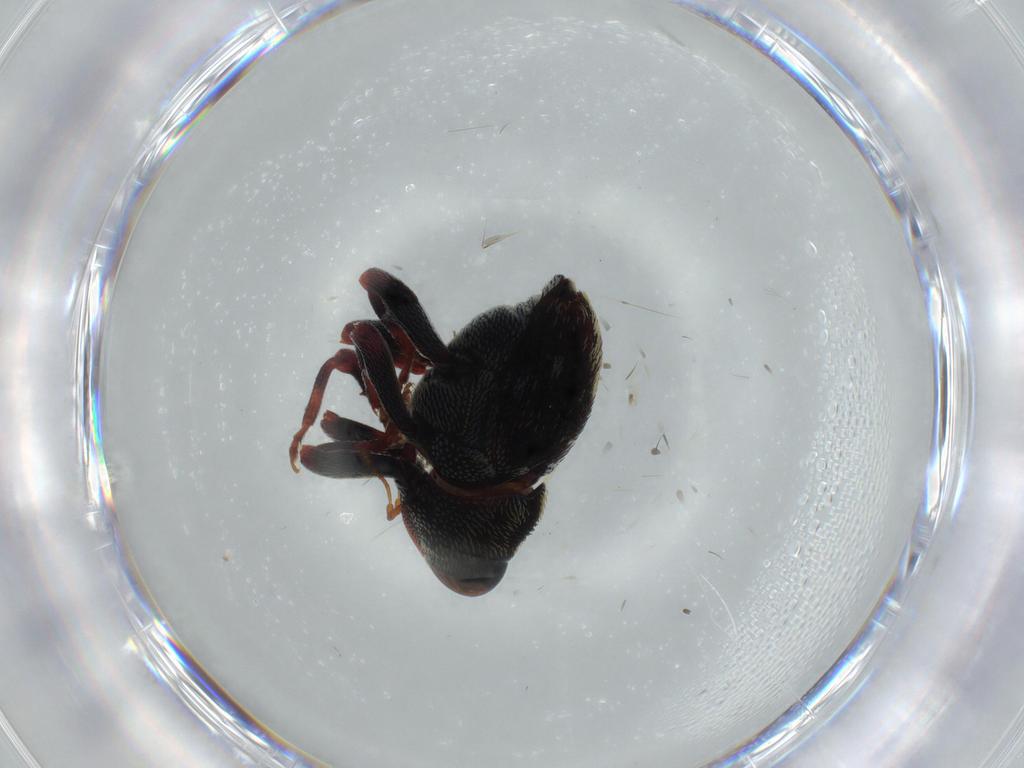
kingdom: Animalia
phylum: Arthropoda
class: Insecta
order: Coleoptera
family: Curculionidae
